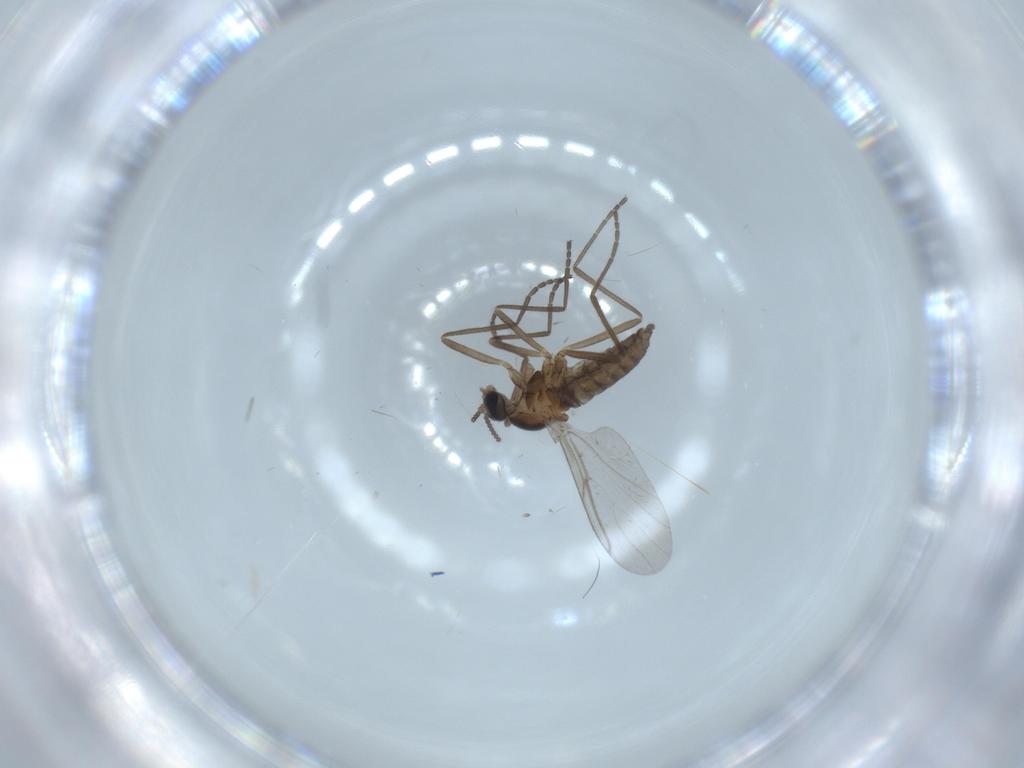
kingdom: Animalia
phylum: Arthropoda
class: Insecta
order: Diptera
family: Cecidomyiidae
